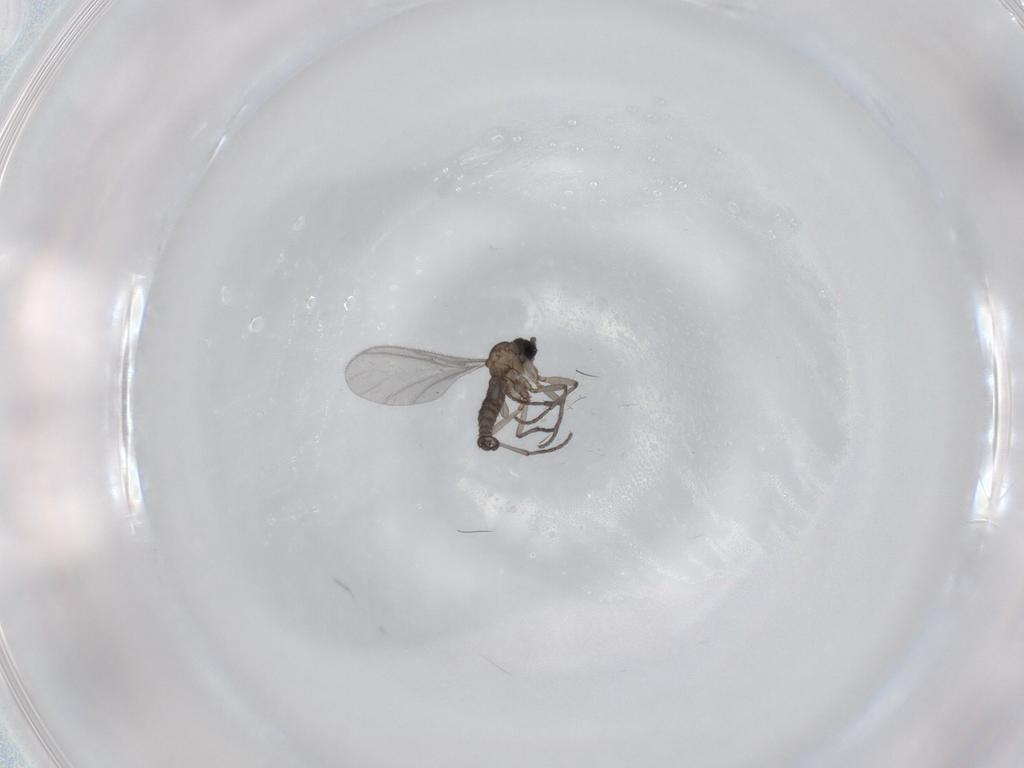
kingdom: Animalia
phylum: Arthropoda
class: Insecta
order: Diptera
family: Sciaridae
